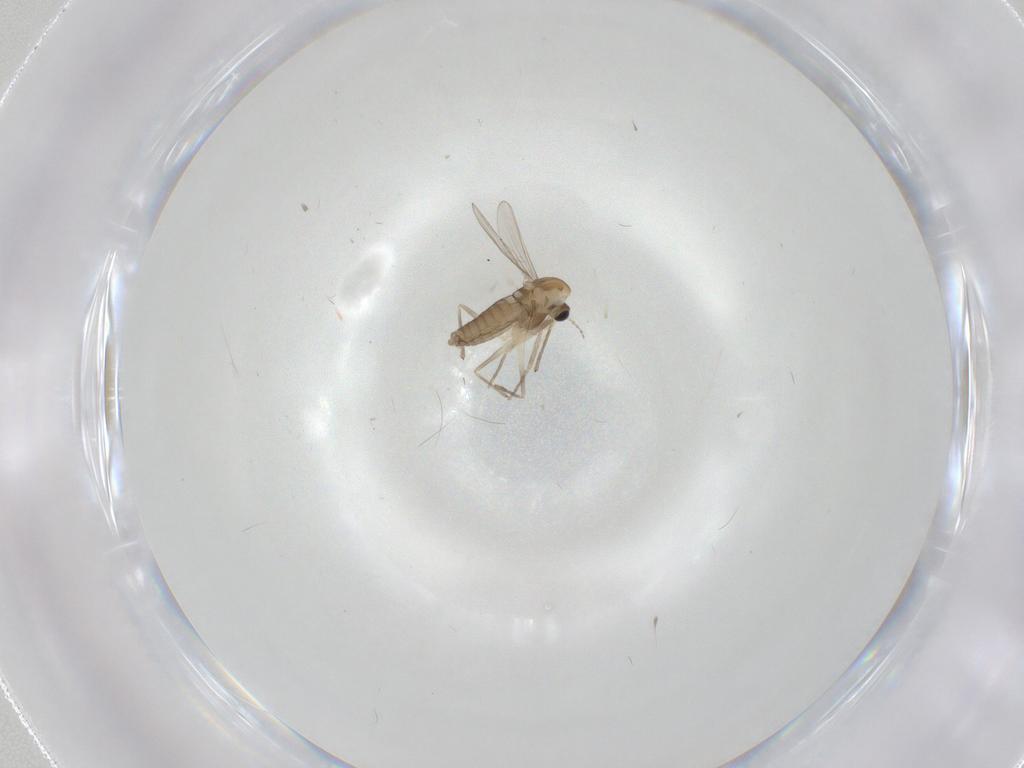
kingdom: Animalia
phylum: Arthropoda
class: Insecta
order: Diptera
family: Chironomidae
